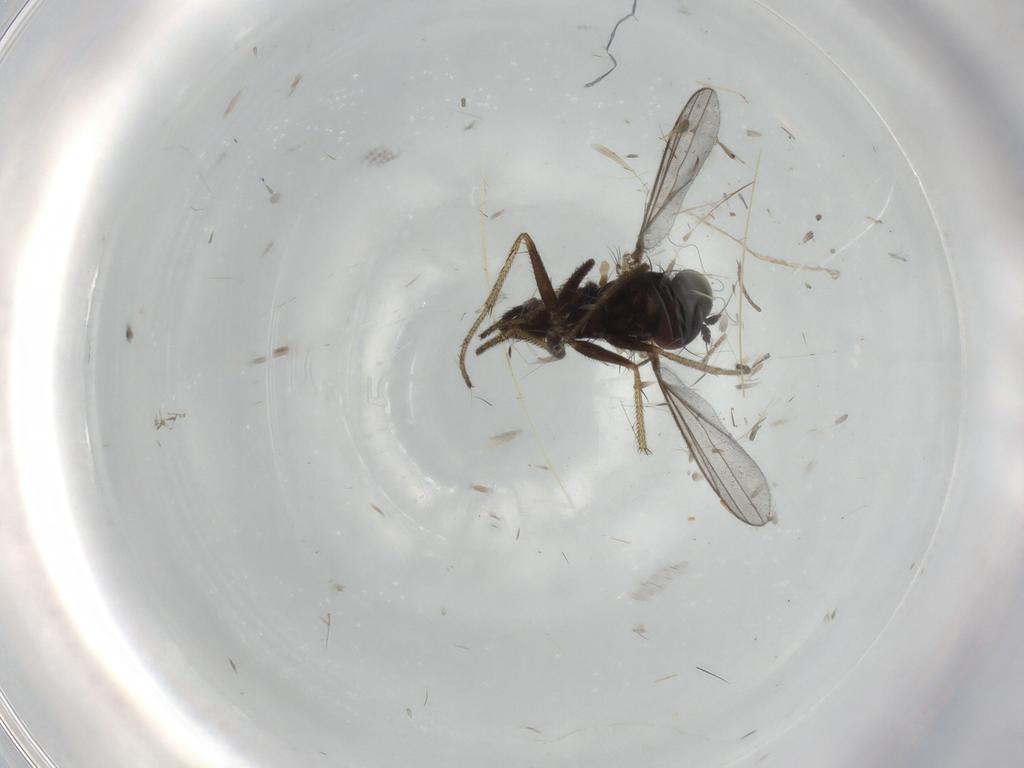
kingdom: Animalia
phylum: Arthropoda
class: Insecta
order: Diptera
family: Cecidomyiidae
